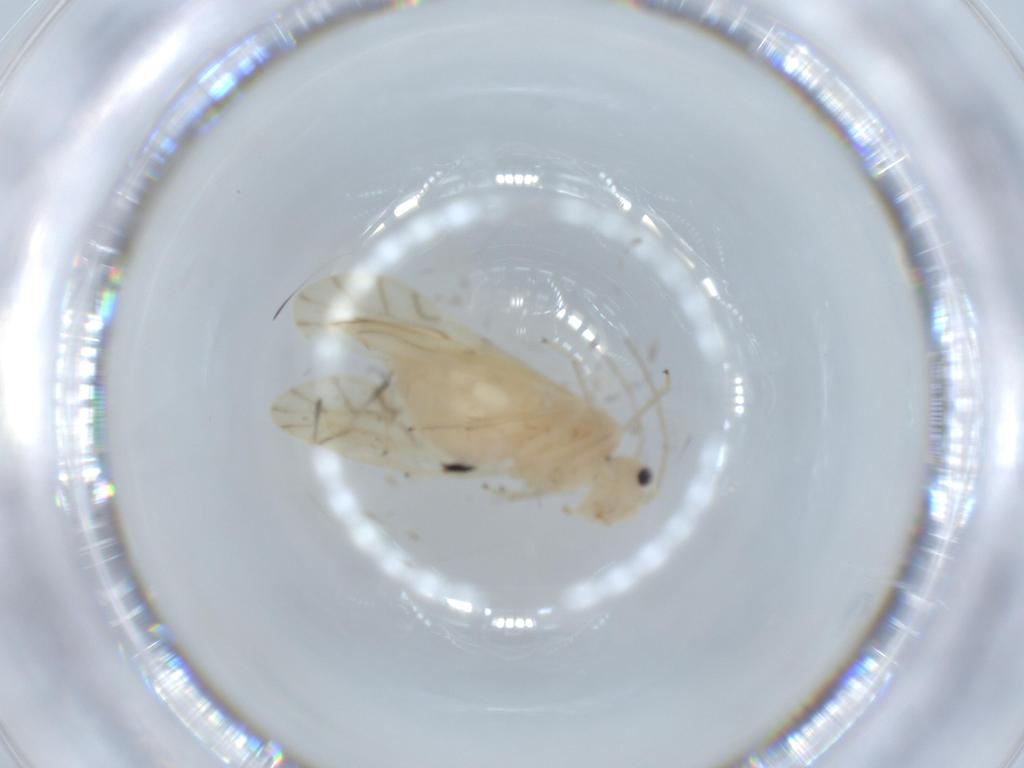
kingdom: Animalia
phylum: Arthropoda
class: Insecta
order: Psocodea
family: Caeciliusidae
